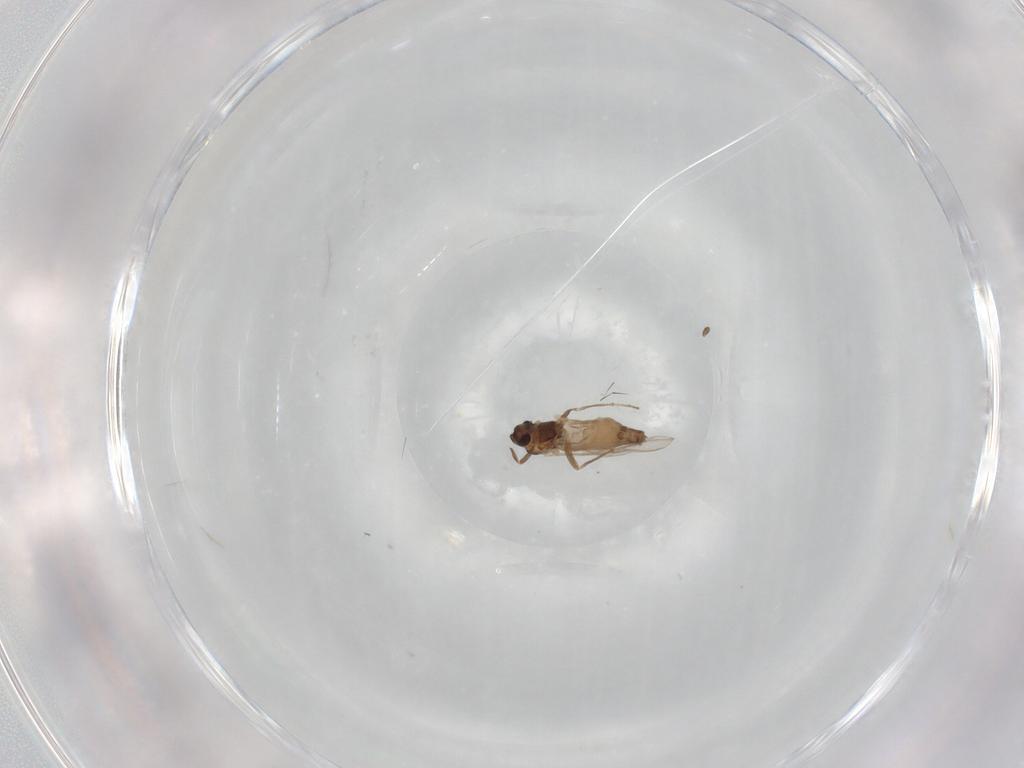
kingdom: Animalia
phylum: Arthropoda
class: Insecta
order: Diptera
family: Chironomidae
